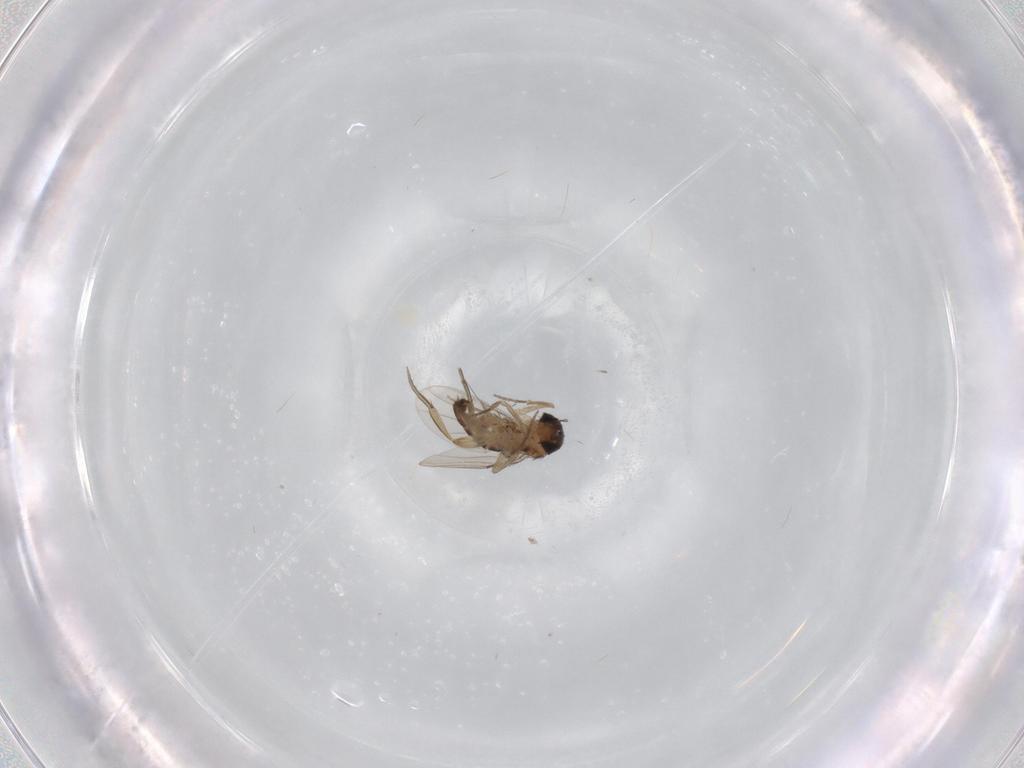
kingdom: Animalia
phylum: Arthropoda
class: Insecta
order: Diptera
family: Phoridae
